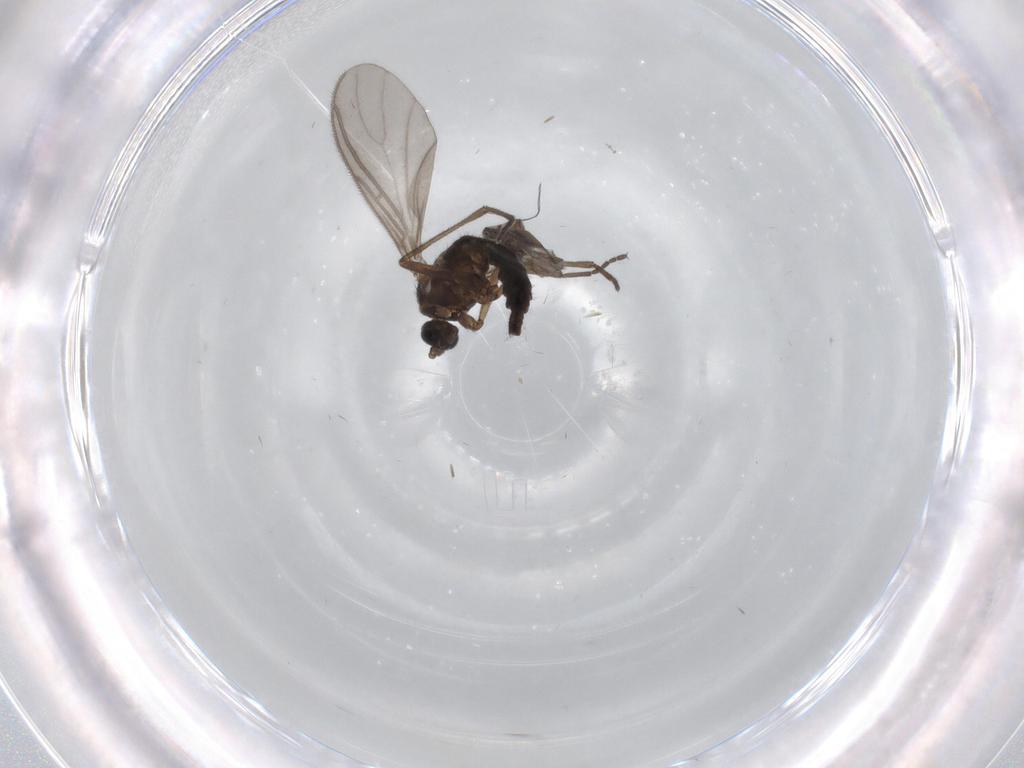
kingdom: Animalia
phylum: Arthropoda
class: Insecta
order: Diptera
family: Sciaridae
